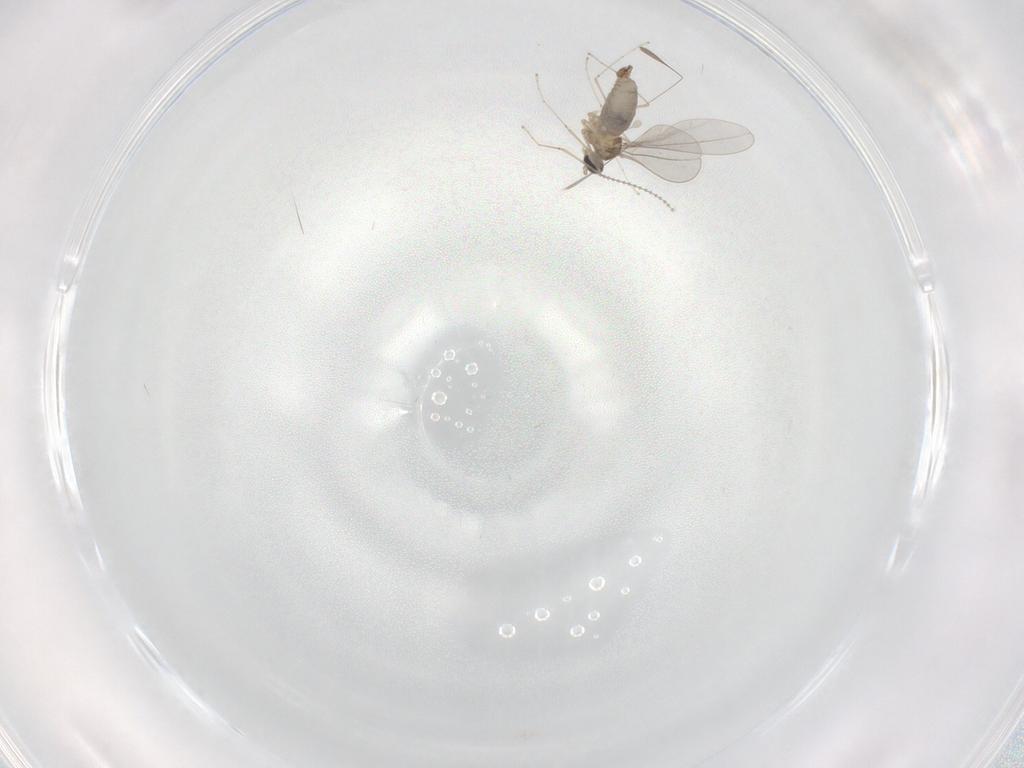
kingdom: Animalia
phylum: Arthropoda
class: Insecta
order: Diptera
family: Cecidomyiidae
